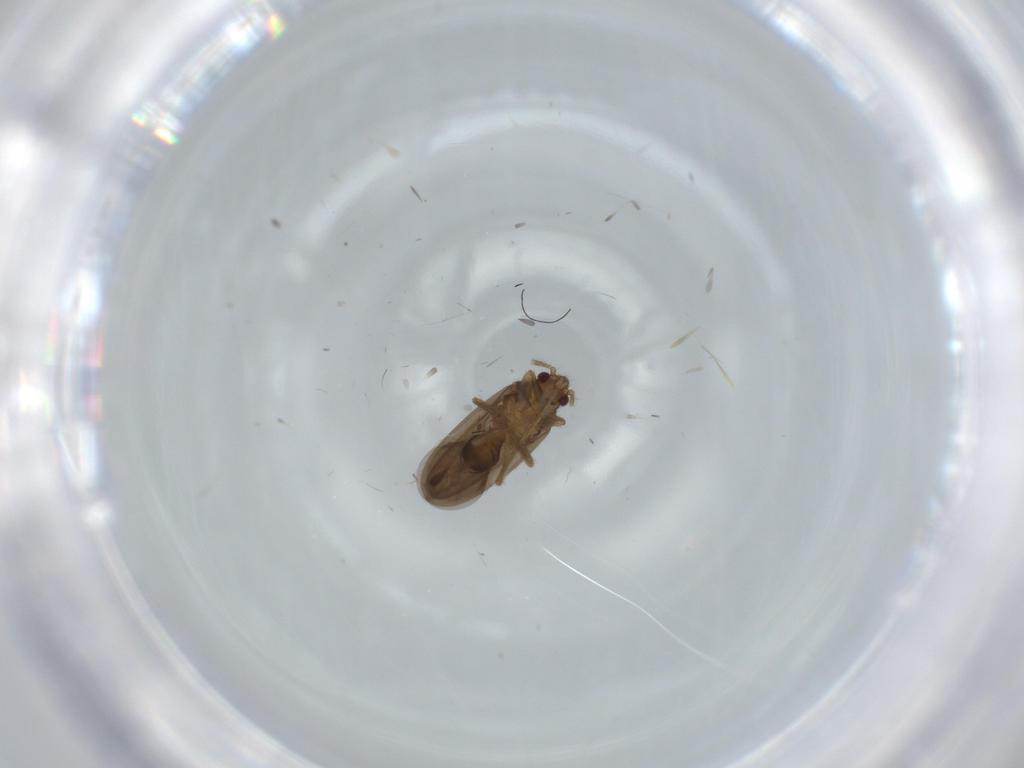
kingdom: Animalia
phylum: Arthropoda
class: Insecta
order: Hemiptera
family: Ceratocombidae
